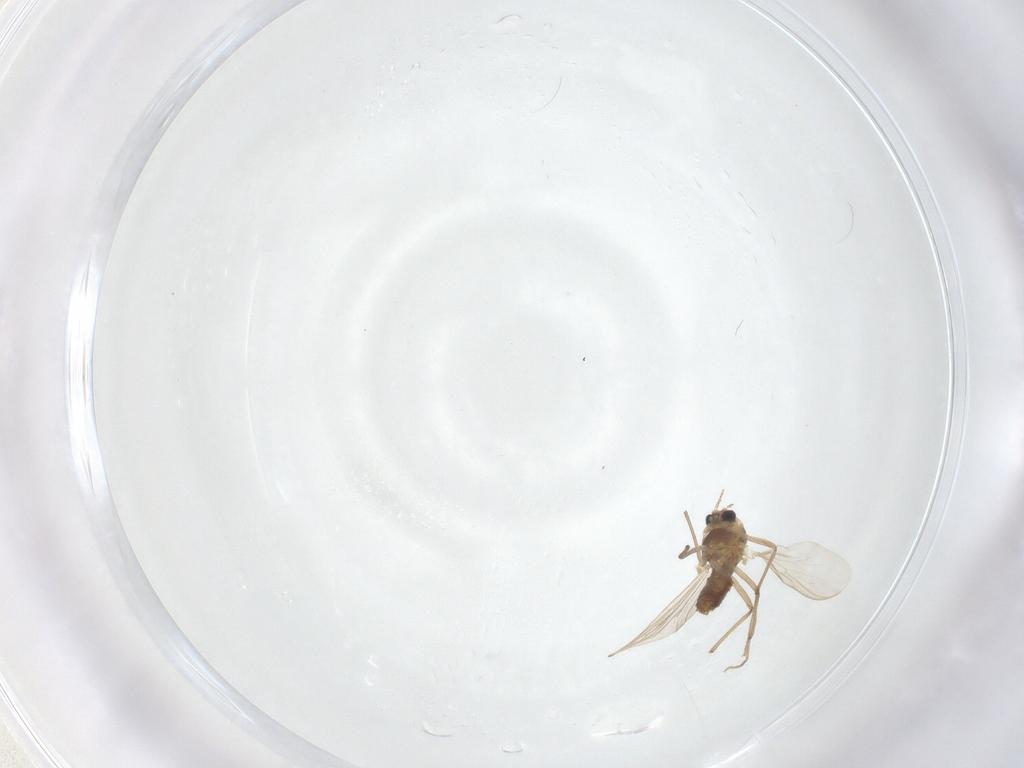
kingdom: Animalia
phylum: Arthropoda
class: Insecta
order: Diptera
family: Chironomidae
